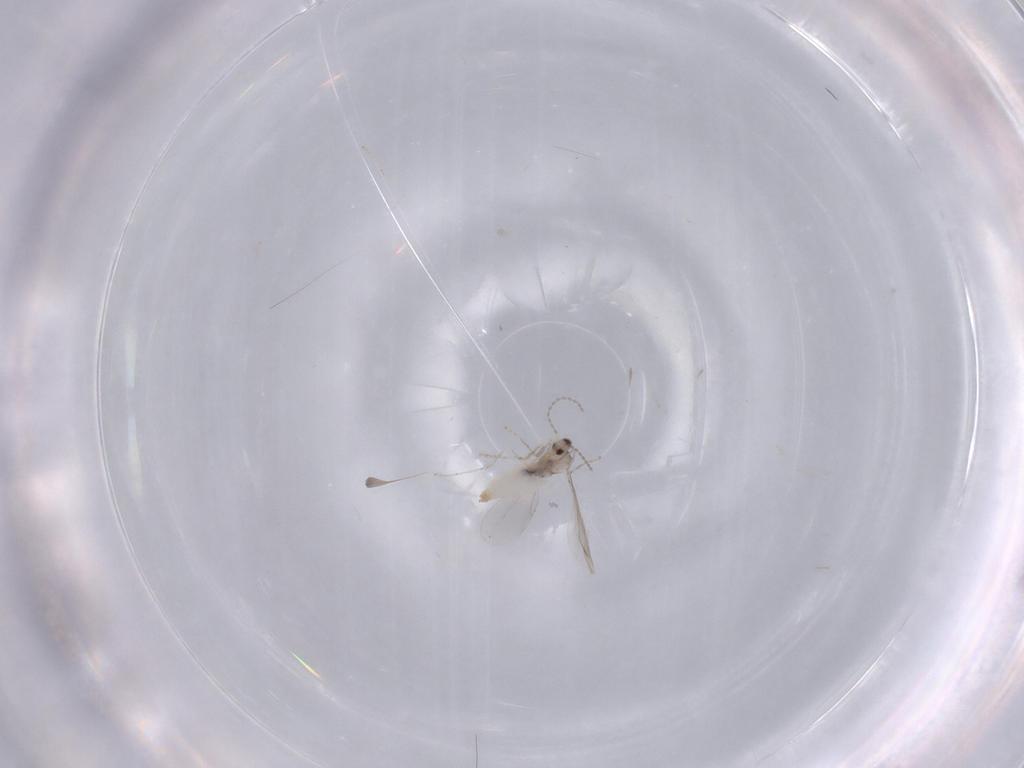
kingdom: Animalia
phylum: Arthropoda
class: Insecta
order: Diptera
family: Cecidomyiidae
